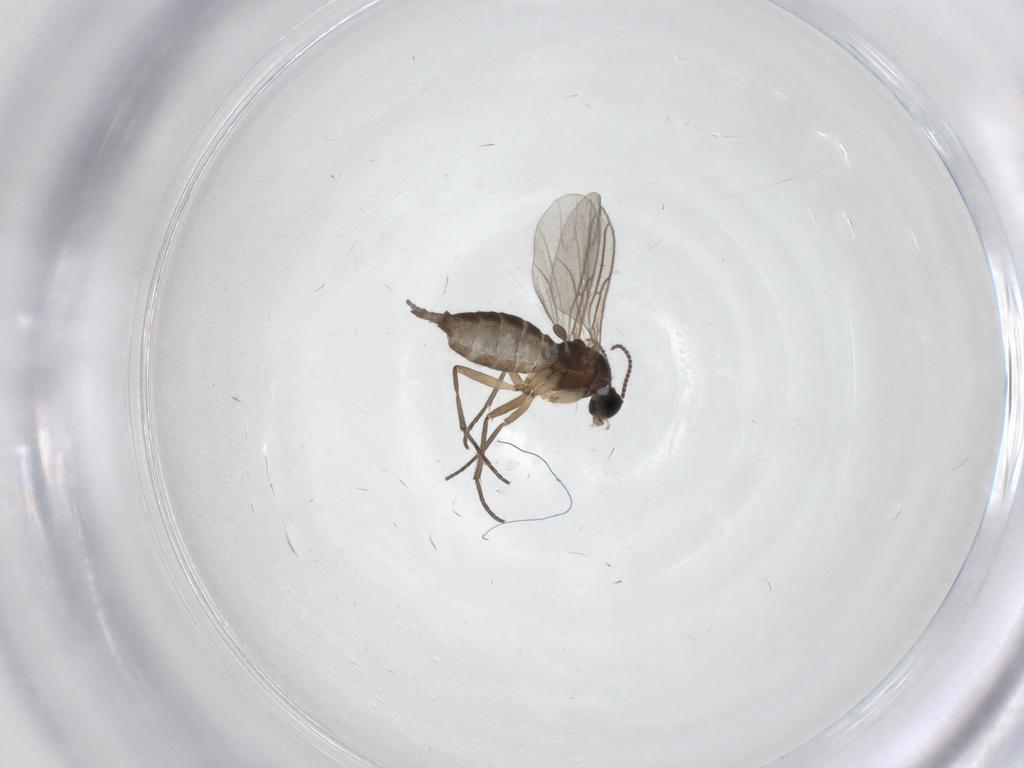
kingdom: Animalia
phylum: Arthropoda
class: Insecta
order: Diptera
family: Sciaridae
